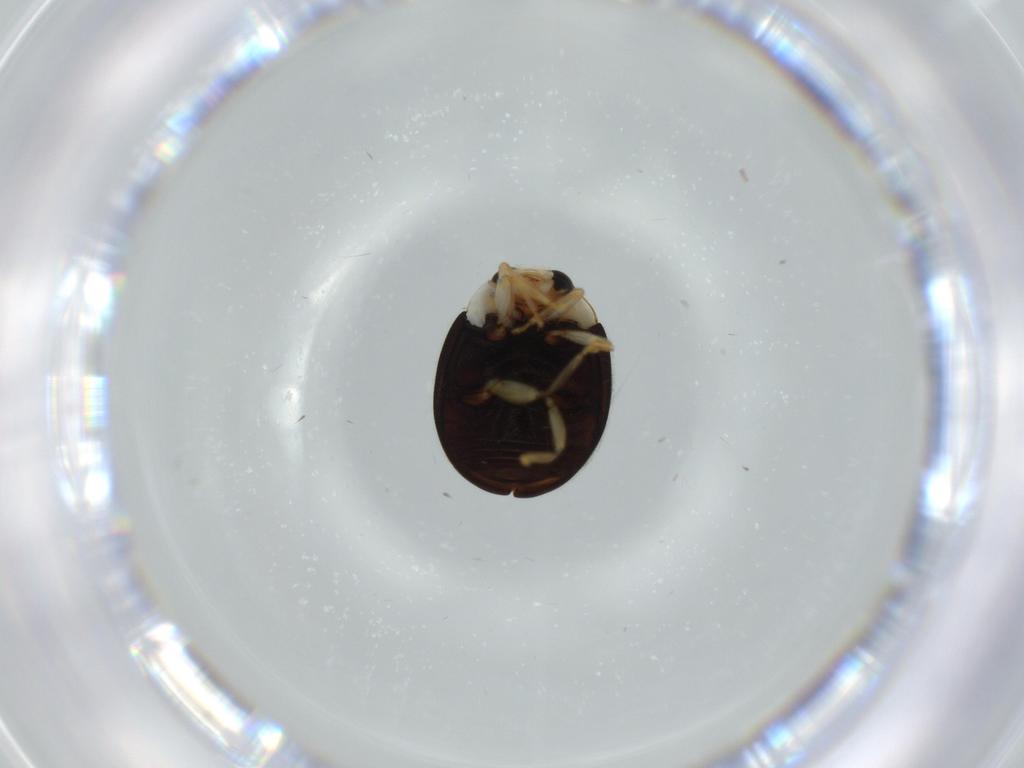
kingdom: Animalia
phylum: Arthropoda
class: Insecta
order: Coleoptera
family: Coccinellidae
